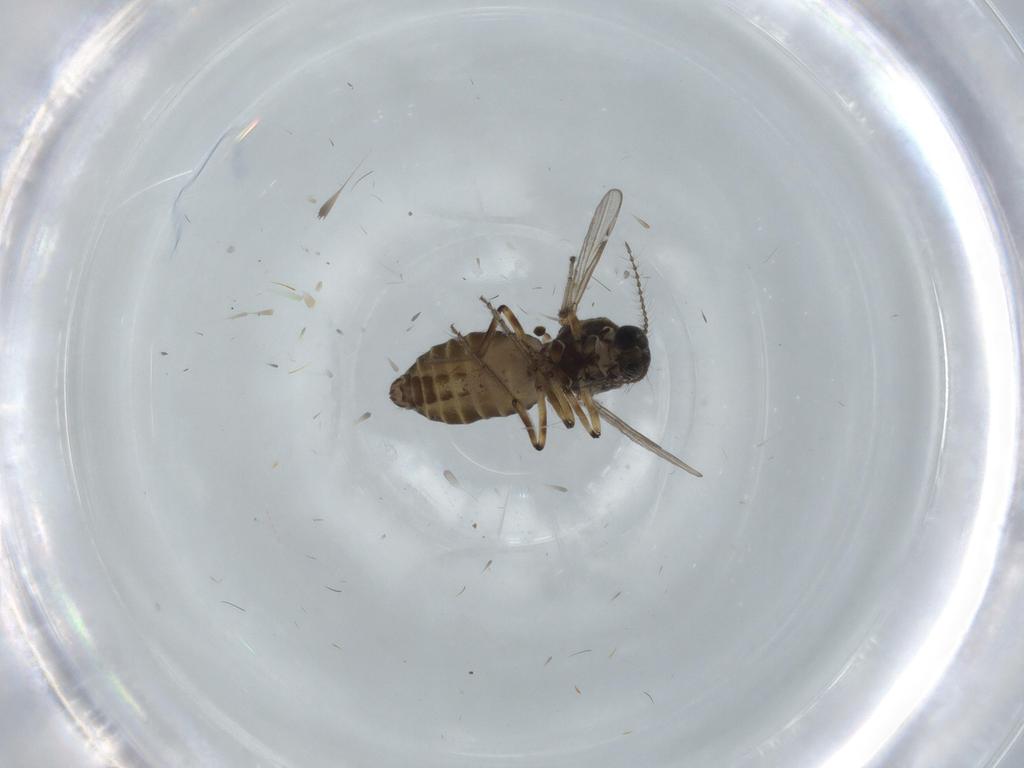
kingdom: Animalia
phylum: Arthropoda
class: Insecta
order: Diptera
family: Ceratopogonidae
